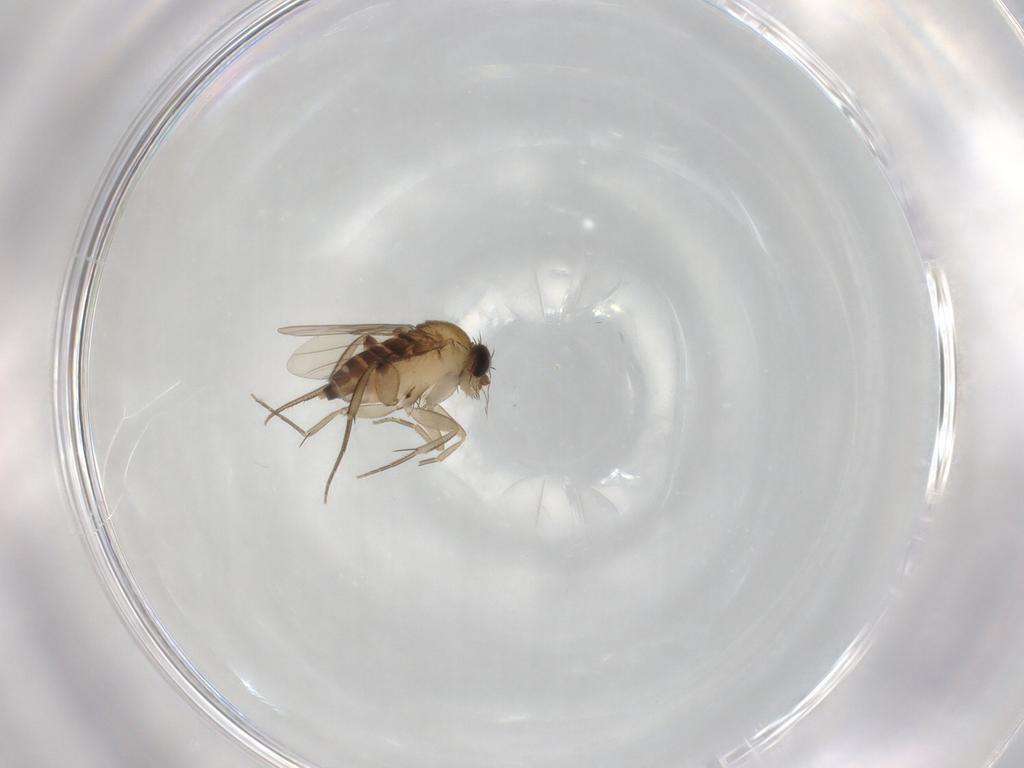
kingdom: Animalia
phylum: Arthropoda
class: Insecta
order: Diptera
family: Phoridae
